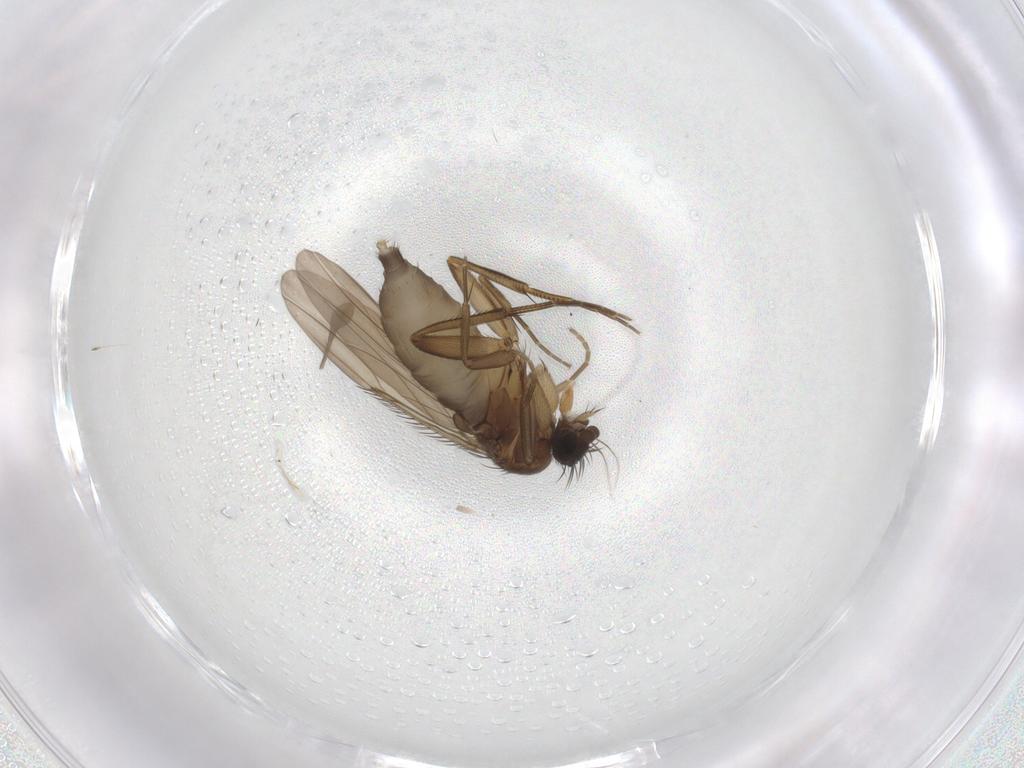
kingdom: Animalia
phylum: Arthropoda
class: Insecta
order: Diptera
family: Phoridae
